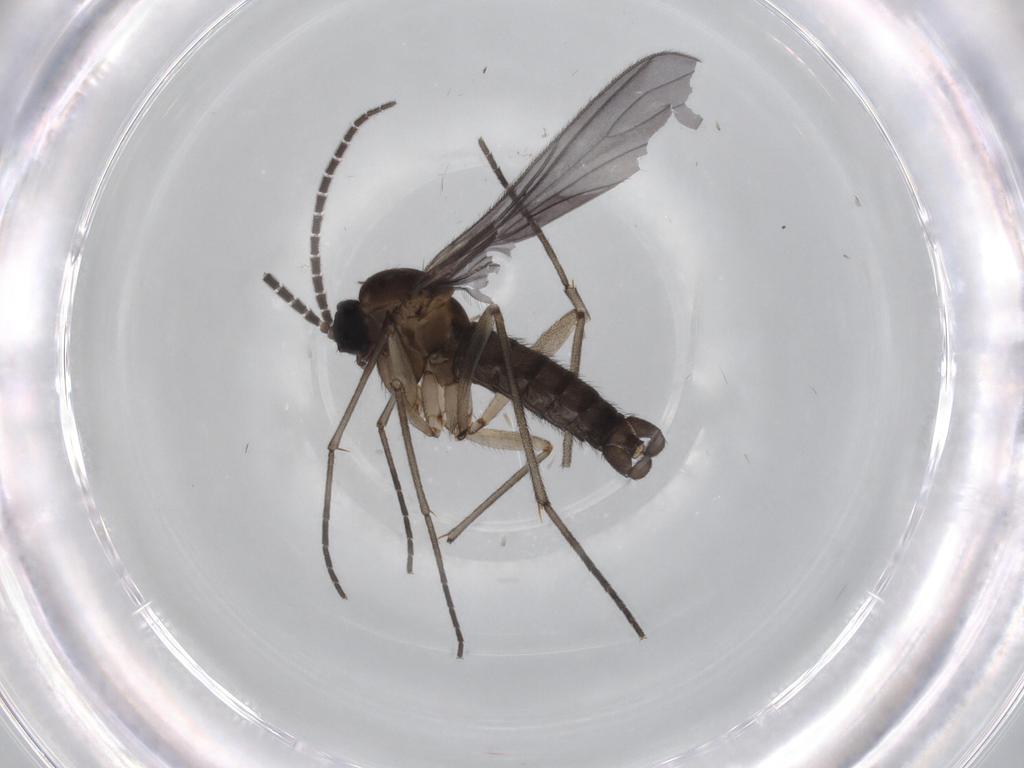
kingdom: Animalia
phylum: Arthropoda
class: Insecta
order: Diptera
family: Sciaridae
